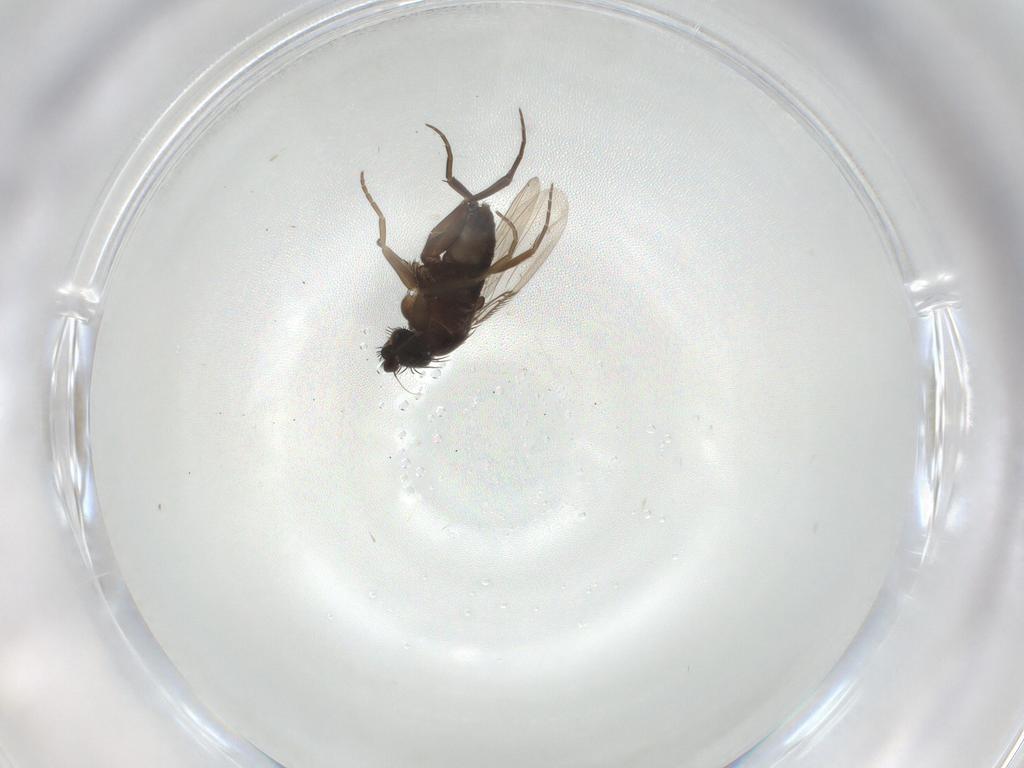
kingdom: Animalia
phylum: Arthropoda
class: Insecta
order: Diptera
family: Phoridae
